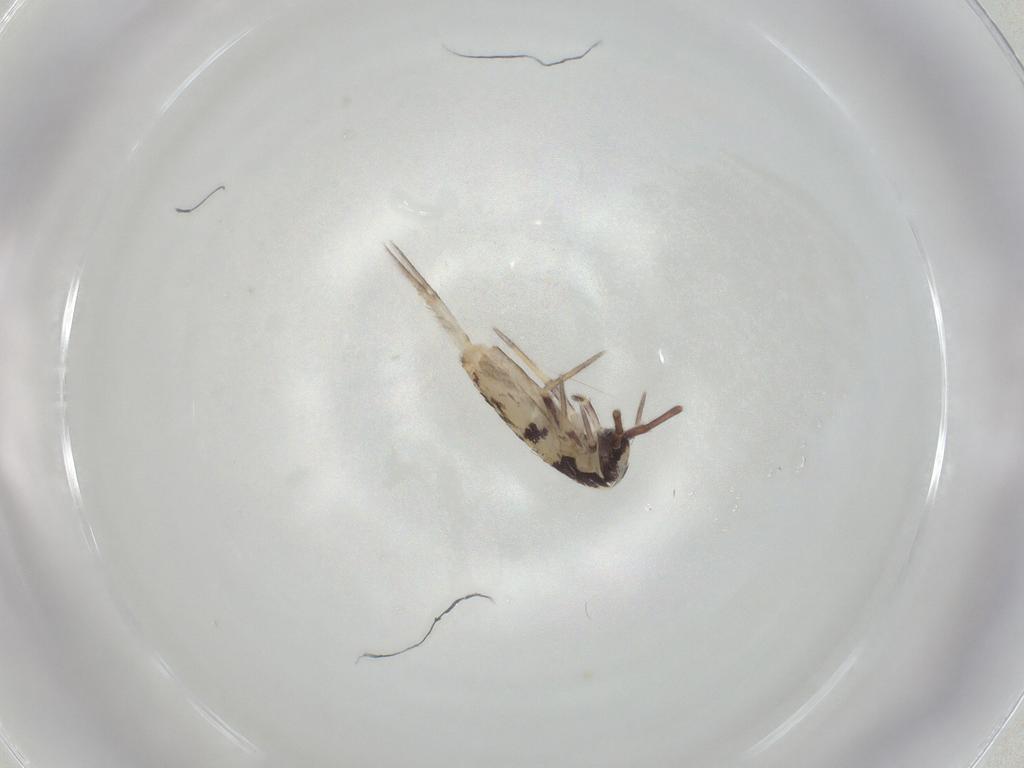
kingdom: Animalia
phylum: Arthropoda
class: Collembola
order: Entomobryomorpha
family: Entomobryidae
